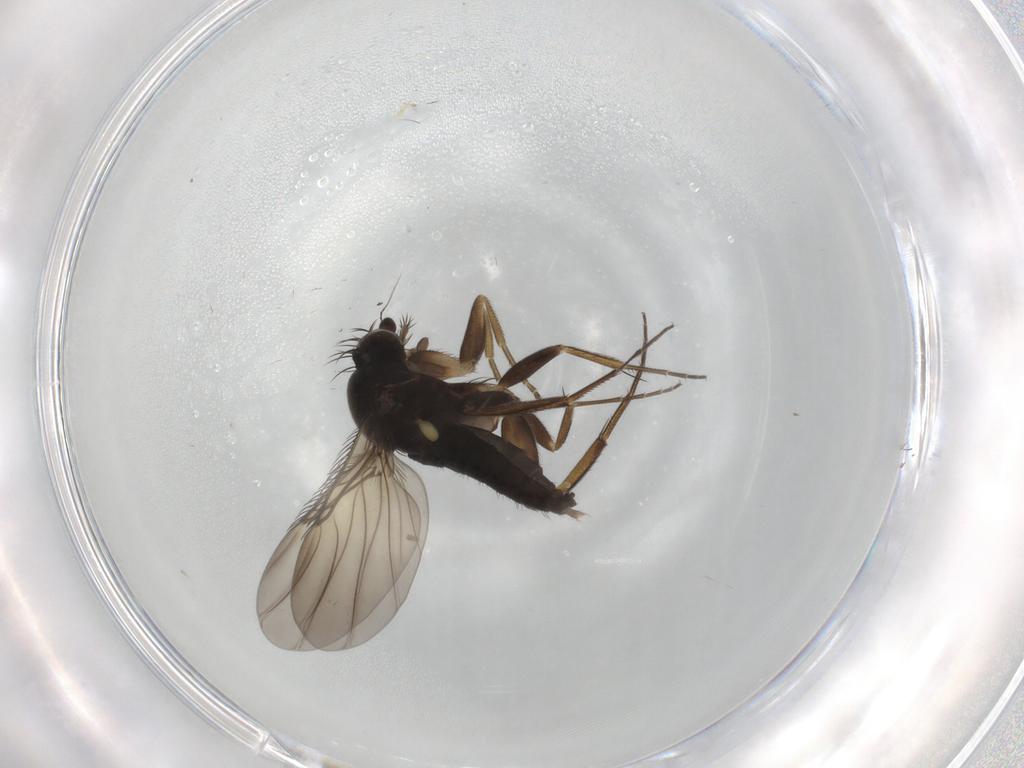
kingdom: Animalia
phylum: Arthropoda
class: Insecta
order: Diptera
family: Phoridae
